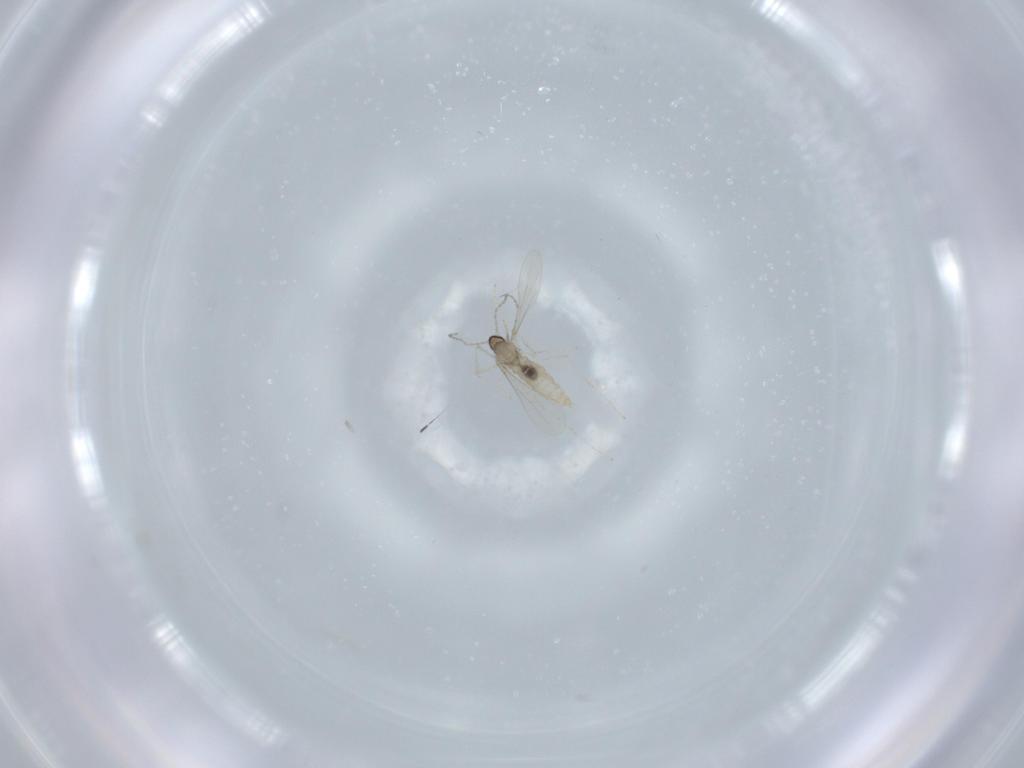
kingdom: Animalia
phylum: Arthropoda
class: Insecta
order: Diptera
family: Cecidomyiidae
